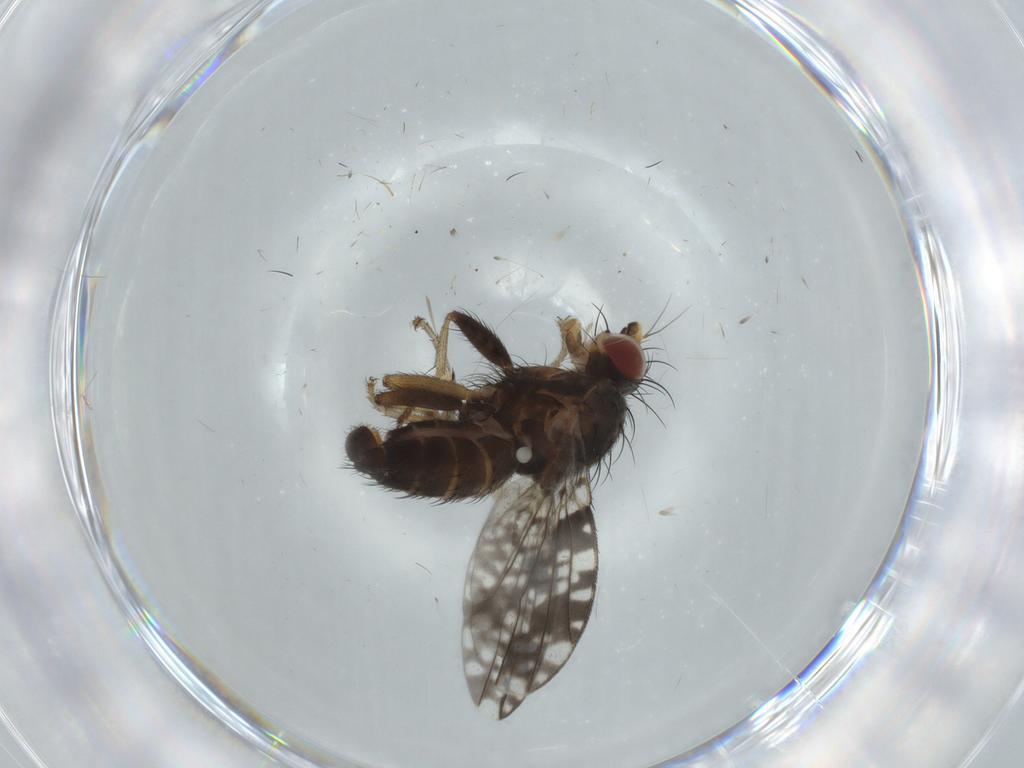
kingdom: Animalia
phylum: Arthropoda
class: Insecta
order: Diptera
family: Tephritidae
